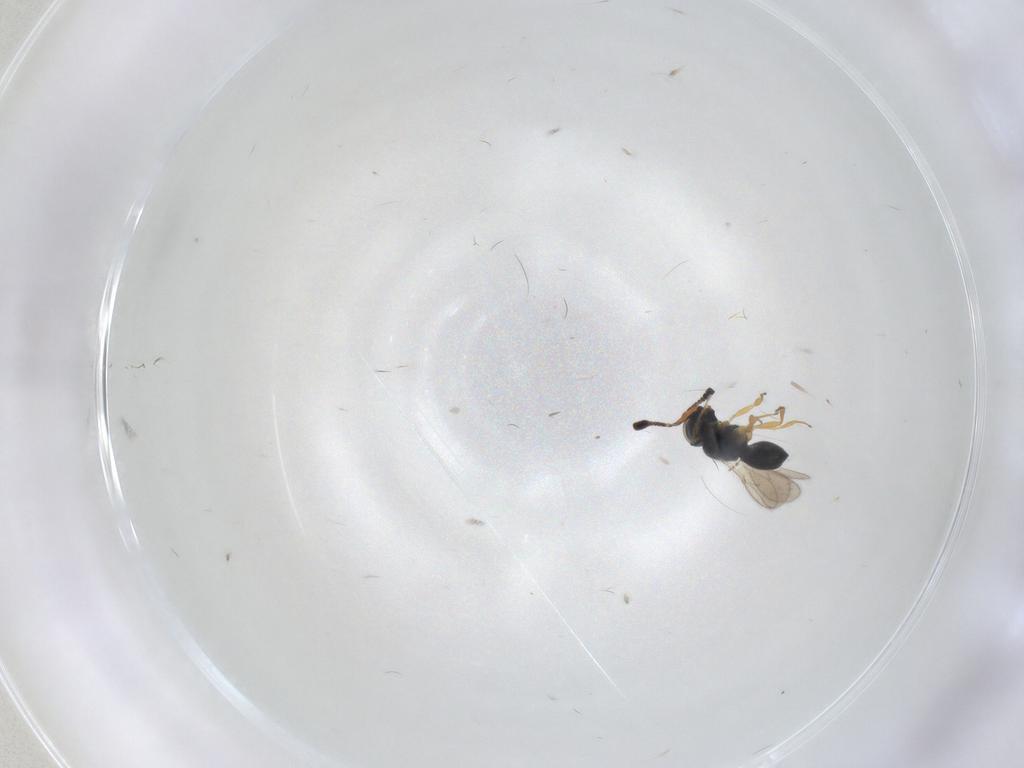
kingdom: Animalia
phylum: Arthropoda
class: Insecta
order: Hymenoptera
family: Scelionidae
